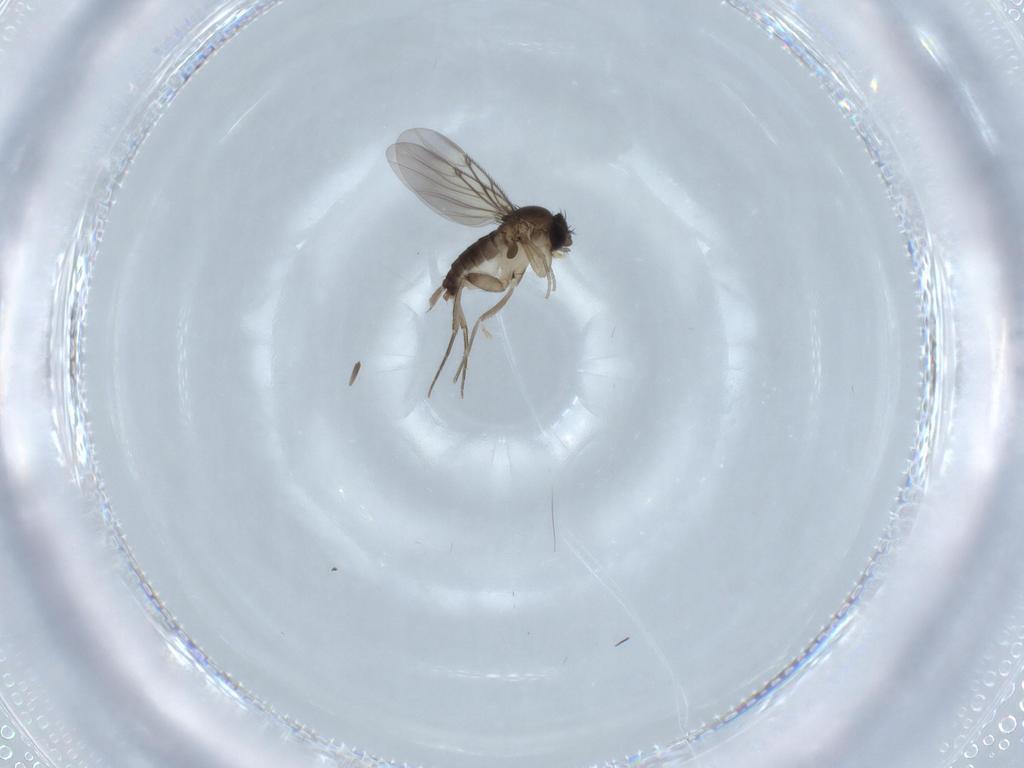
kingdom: Animalia
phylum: Arthropoda
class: Insecta
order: Diptera
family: Phoridae
